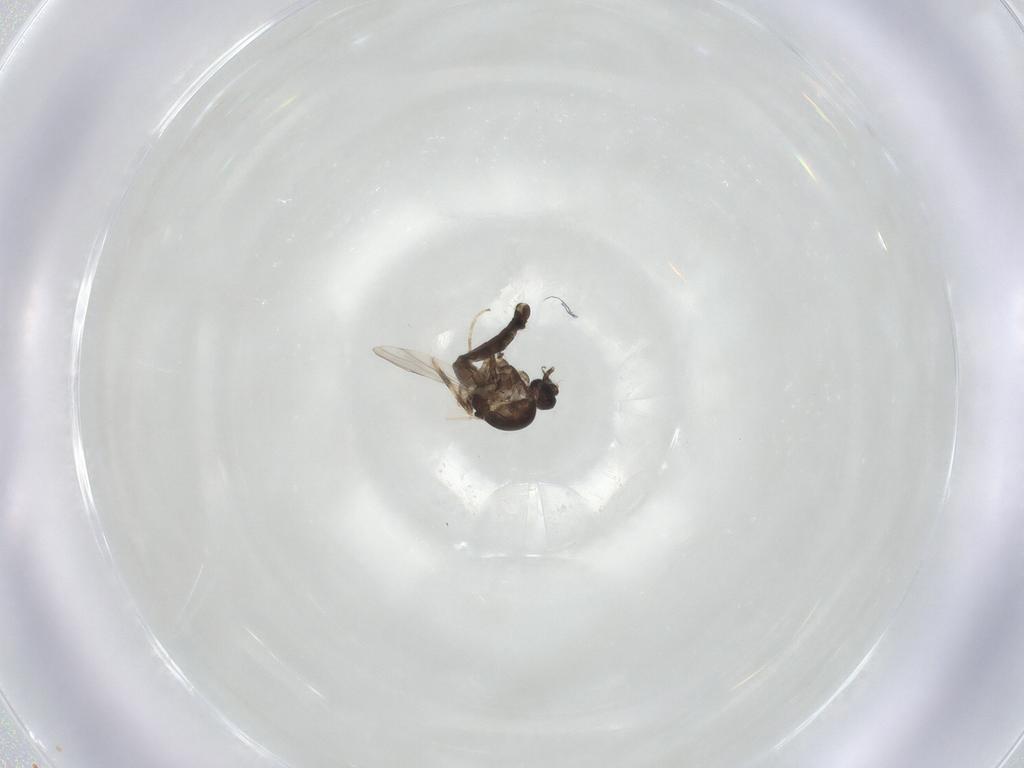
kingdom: Animalia
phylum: Arthropoda
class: Insecta
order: Diptera
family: Ceratopogonidae
